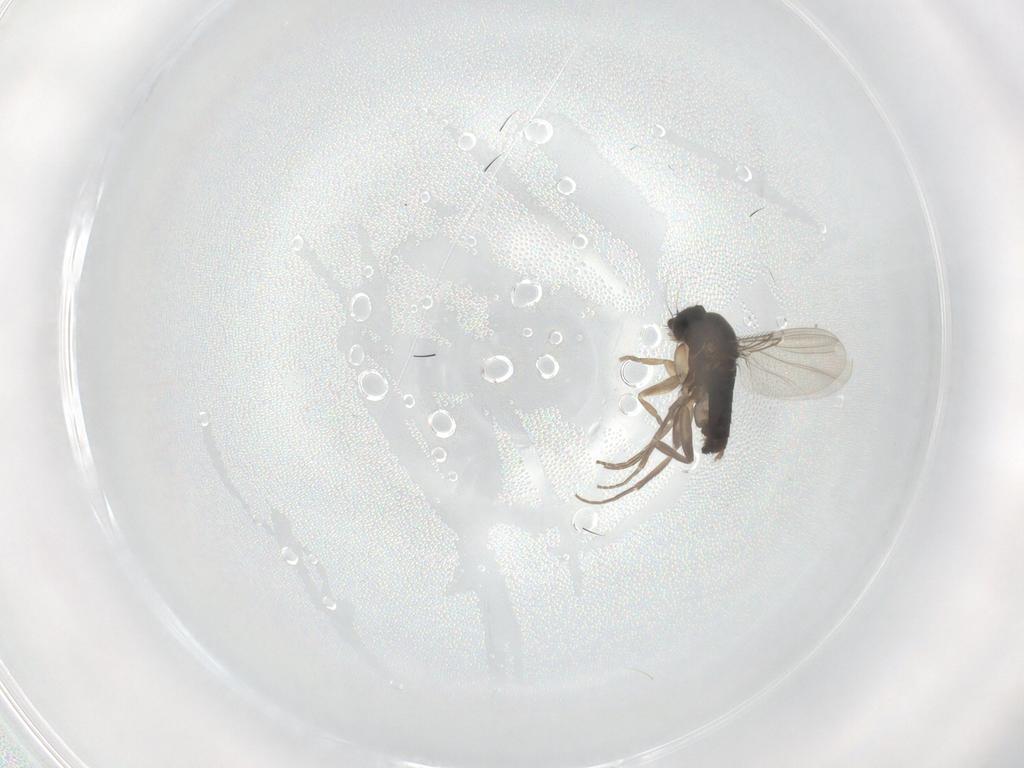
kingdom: Animalia
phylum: Arthropoda
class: Insecta
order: Diptera
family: Phoridae
